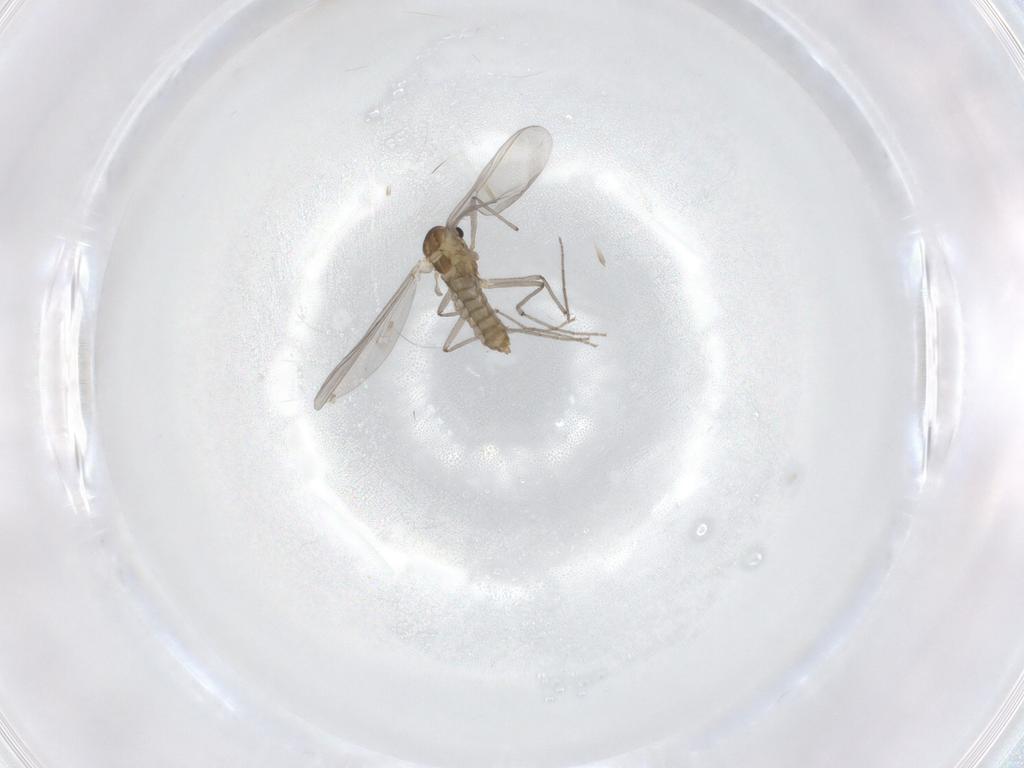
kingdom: Animalia
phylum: Arthropoda
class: Insecta
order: Diptera
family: Chironomidae
